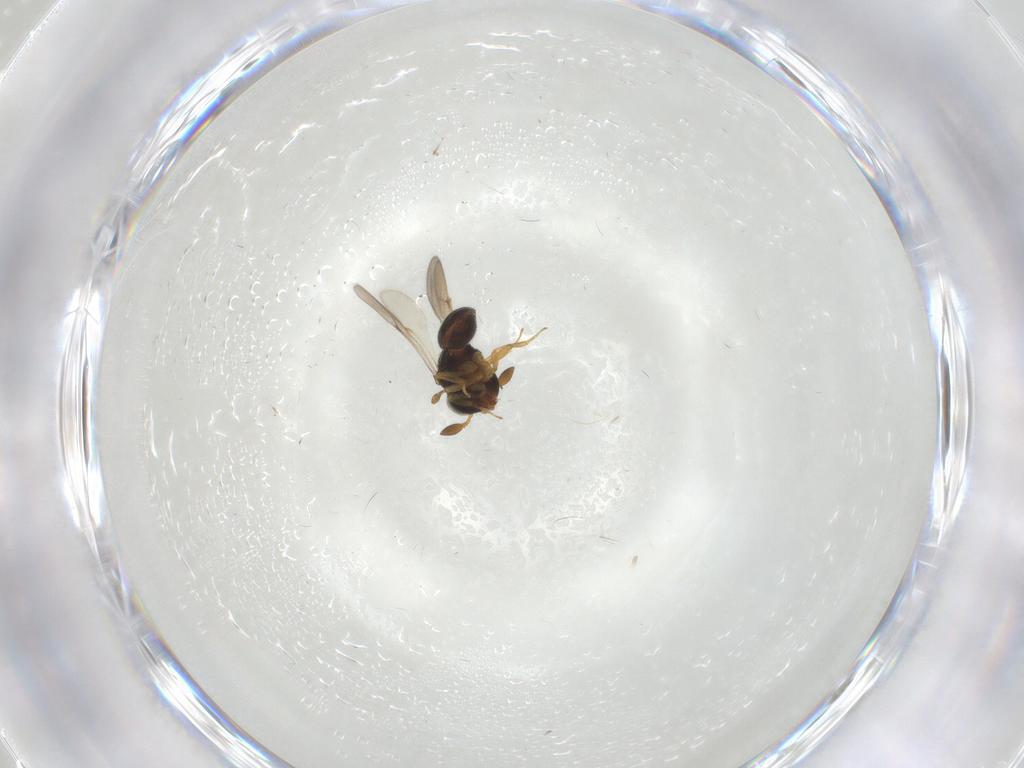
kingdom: Animalia
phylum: Arthropoda
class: Insecta
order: Hymenoptera
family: Scelionidae
